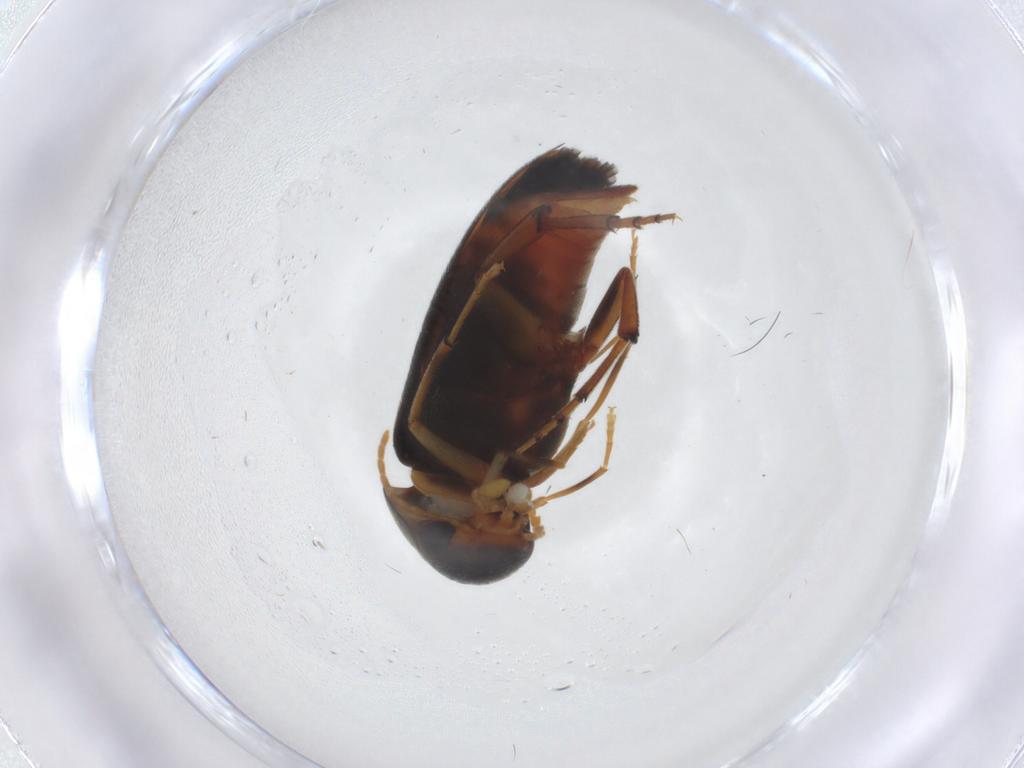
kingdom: Animalia
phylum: Arthropoda
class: Insecta
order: Coleoptera
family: Mordellidae
